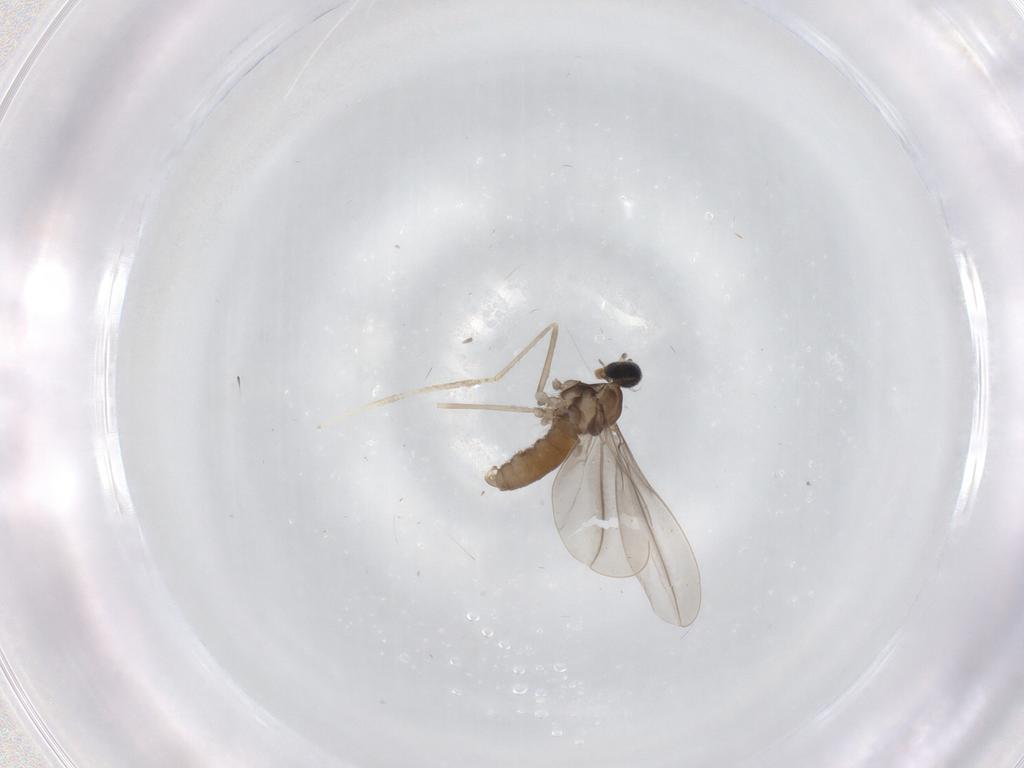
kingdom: Animalia
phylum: Arthropoda
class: Insecta
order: Diptera
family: Cecidomyiidae
